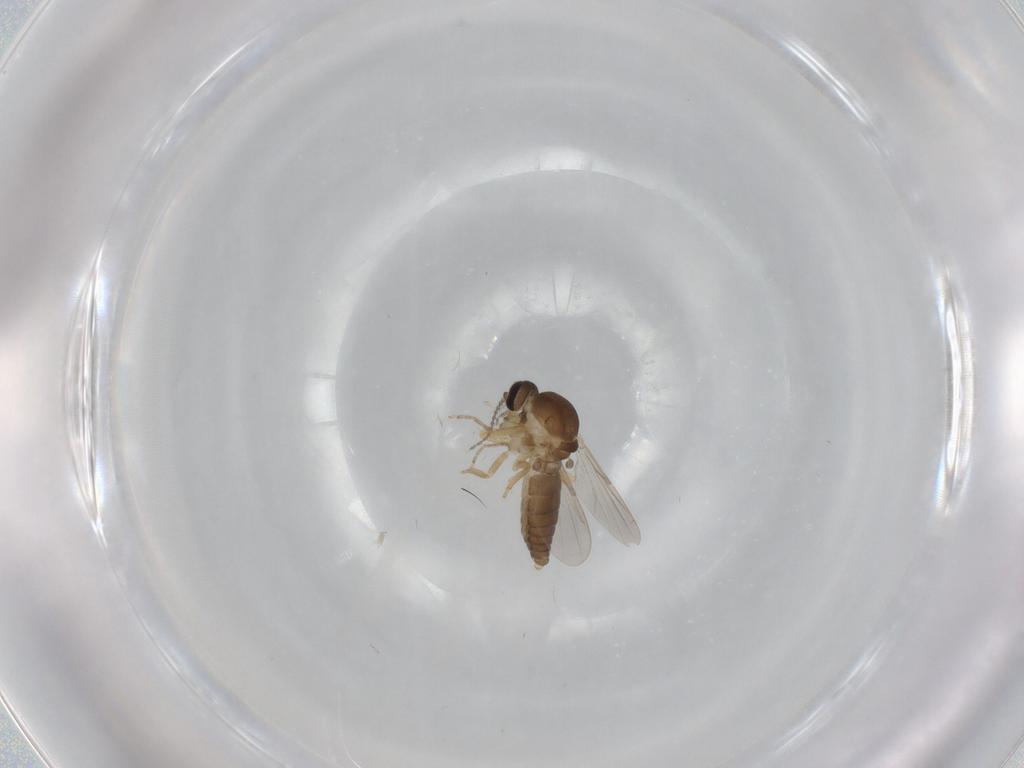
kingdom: Animalia
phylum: Arthropoda
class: Insecta
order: Diptera
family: Ceratopogonidae
